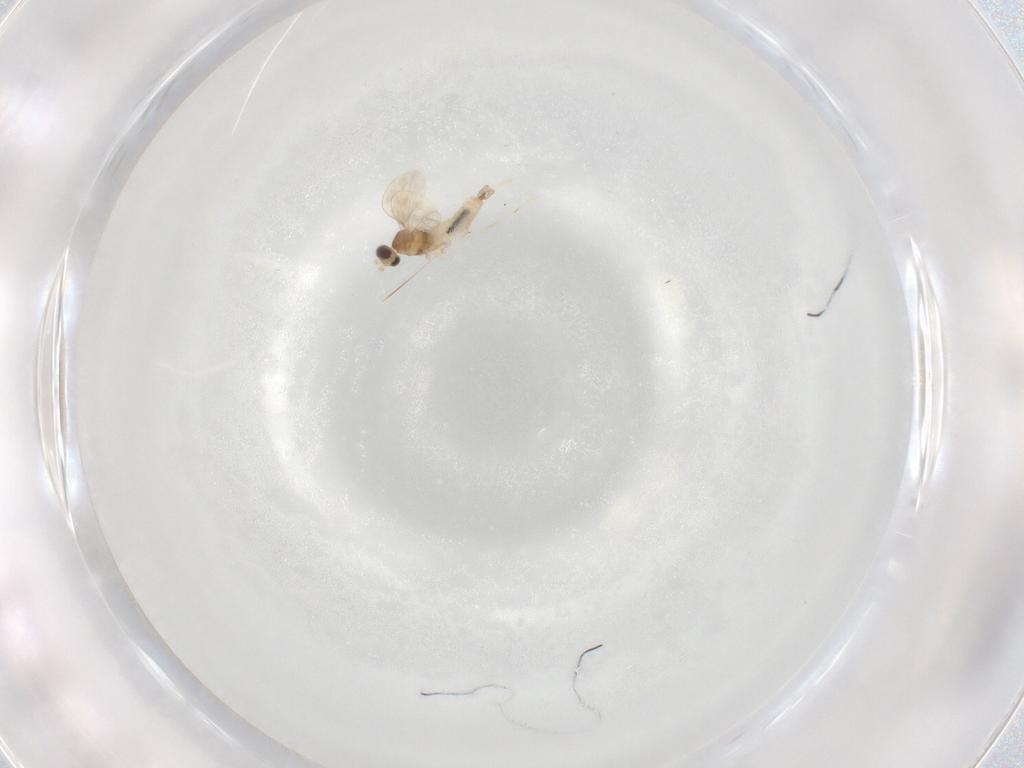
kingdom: Animalia
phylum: Arthropoda
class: Insecta
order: Diptera
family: Cecidomyiidae
